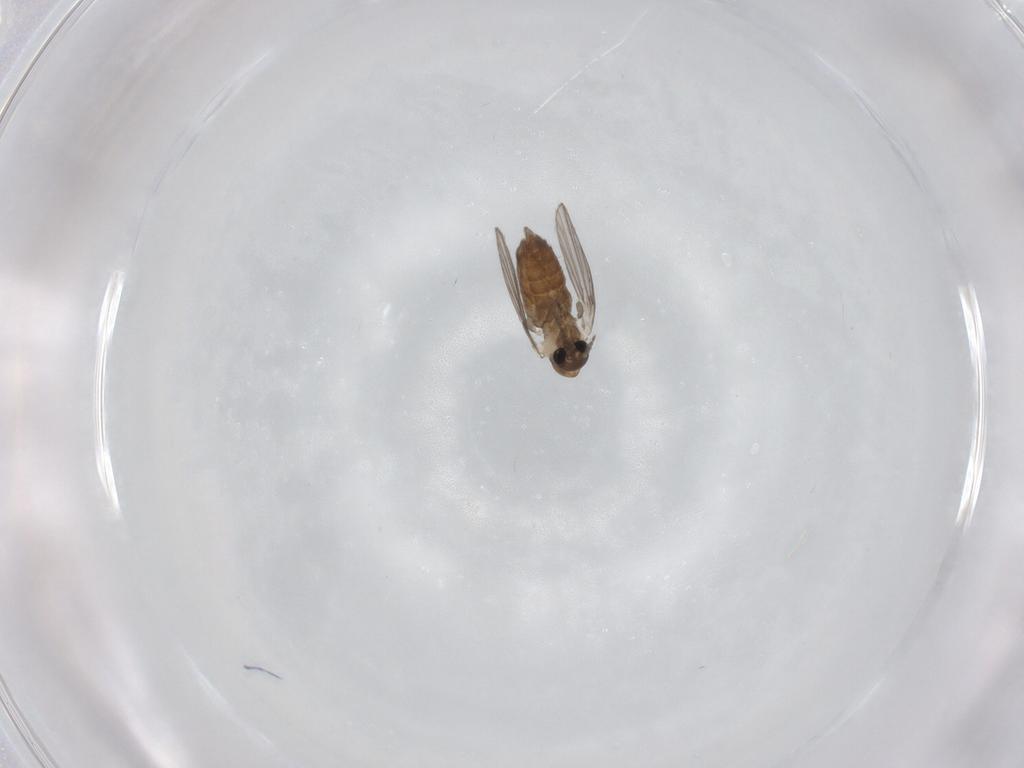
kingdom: Animalia
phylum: Arthropoda
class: Insecta
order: Diptera
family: Psychodidae
